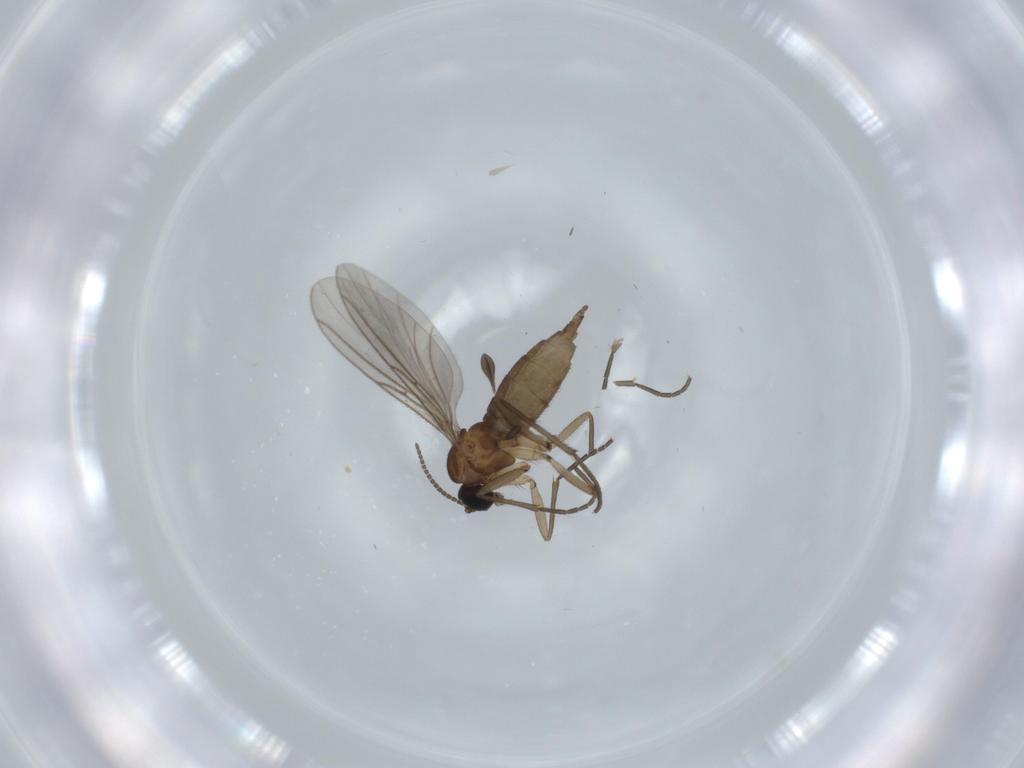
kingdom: Animalia
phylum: Arthropoda
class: Insecta
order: Diptera
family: Sciaridae
